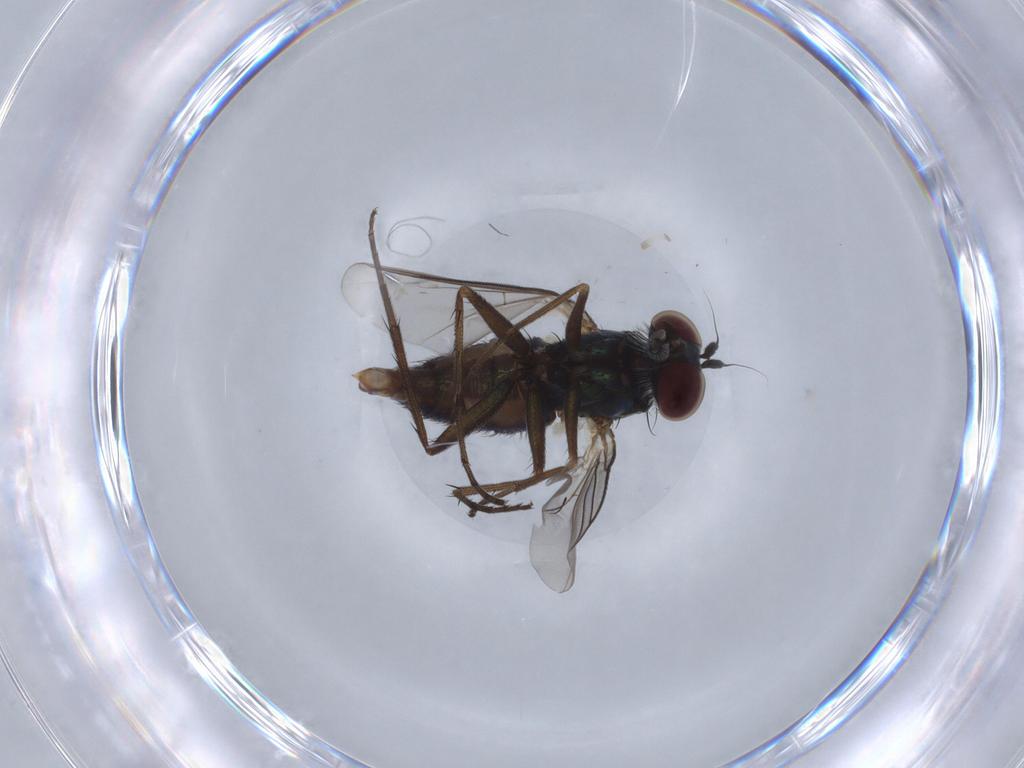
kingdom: Animalia
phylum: Arthropoda
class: Insecta
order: Diptera
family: Dolichopodidae
